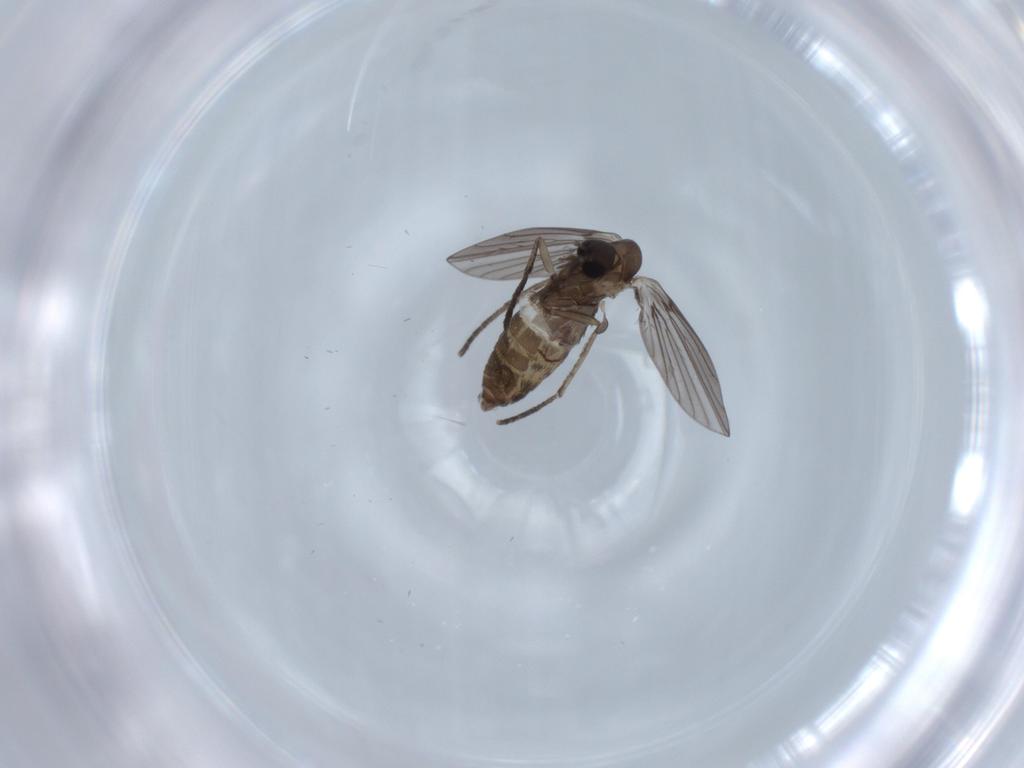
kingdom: Animalia
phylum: Arthropoda
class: Insecta
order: Diptera
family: Psychodidae
